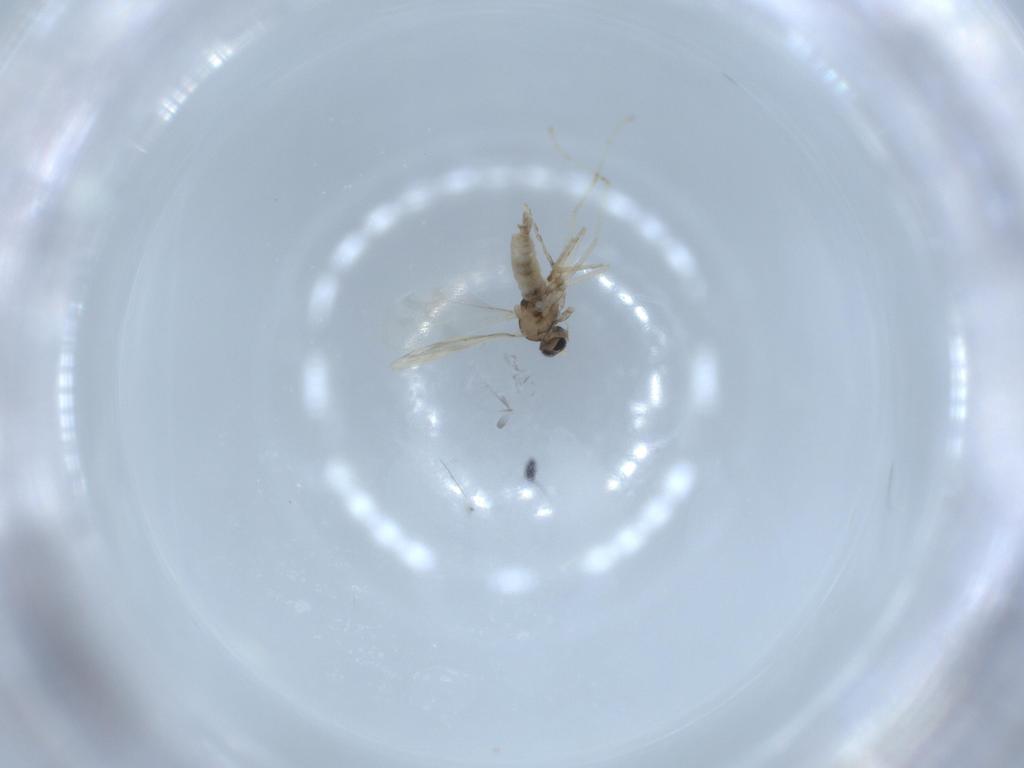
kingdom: Animalia
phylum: Arthropoda
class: Insecta
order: Diptera
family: Cecidomyiidae
